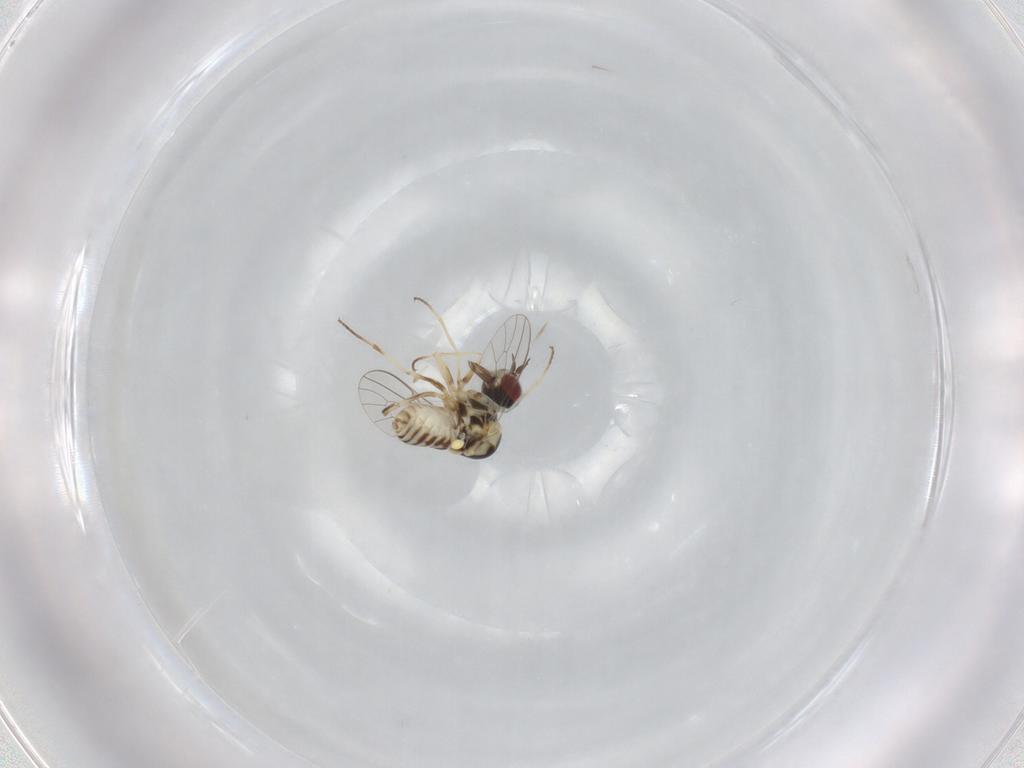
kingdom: Animalia
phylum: Arthropoda
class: Insecta
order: Diptera
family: Bombyliidae
